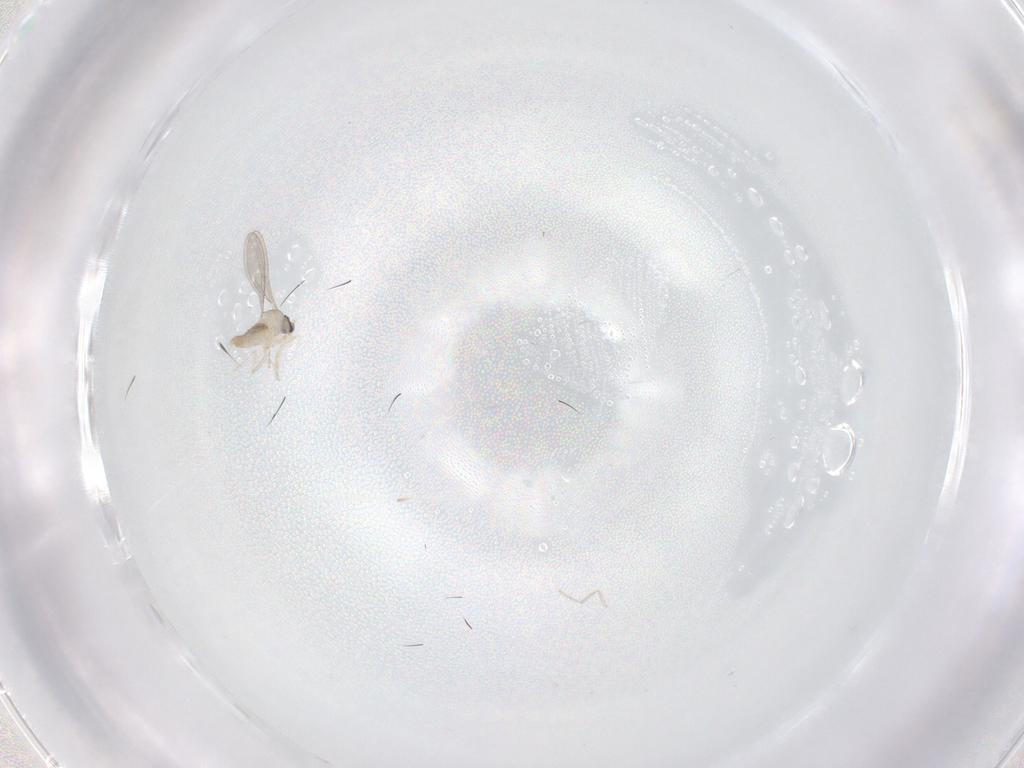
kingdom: Animalia
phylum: Arthropoda
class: Insecta
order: Diptera
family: Cecidomyiidae
